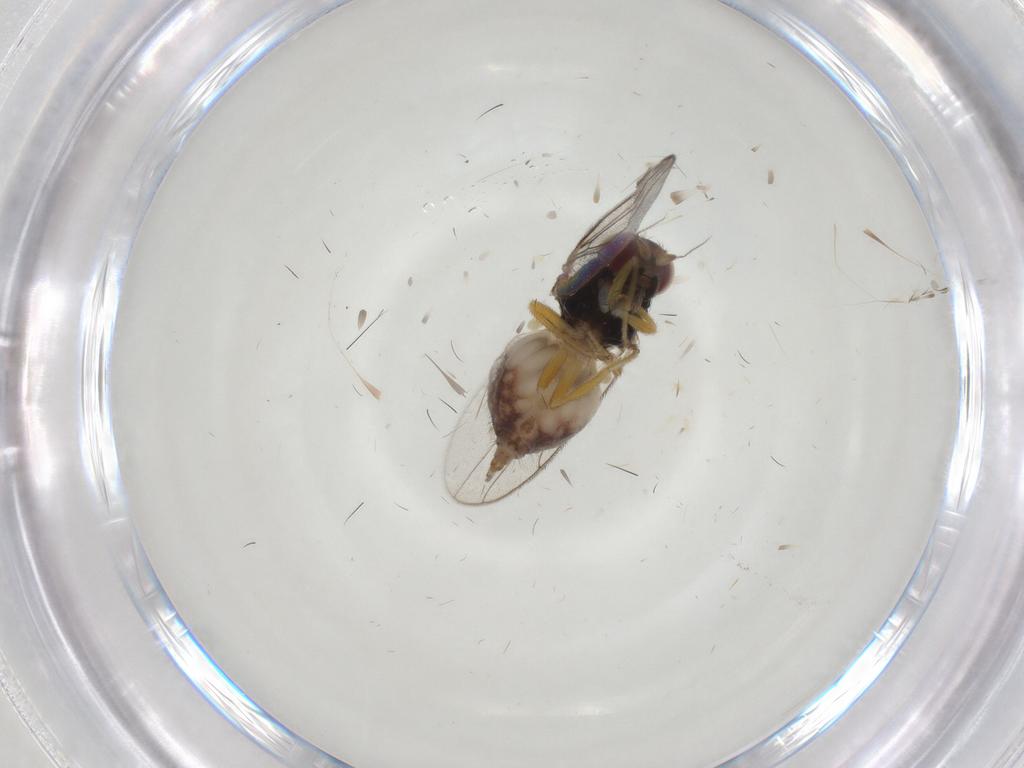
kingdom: Animalia
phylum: Arthropoda
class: Insecta
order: Diptera
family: Chloropidae
